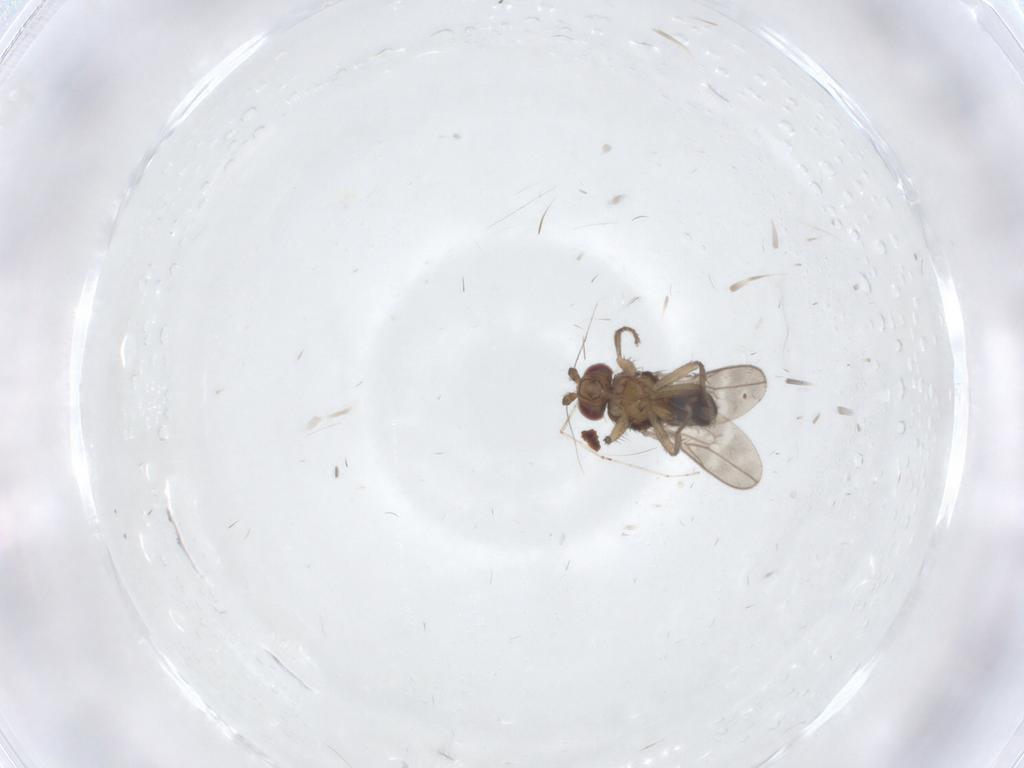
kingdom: Animalia
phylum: Arthropoda
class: Insecta
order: Diptera
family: Sphaeroceridae
